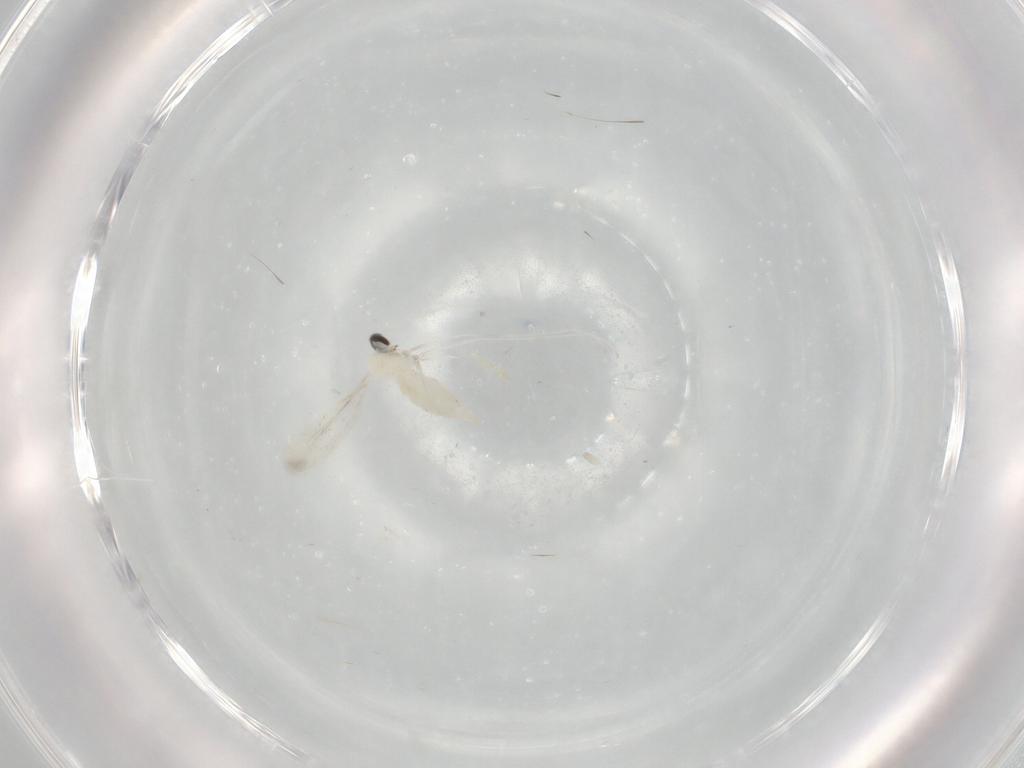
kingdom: Animalia
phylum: Arthropoda
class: Insecta
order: Diptera
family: Cecidomyiidae
